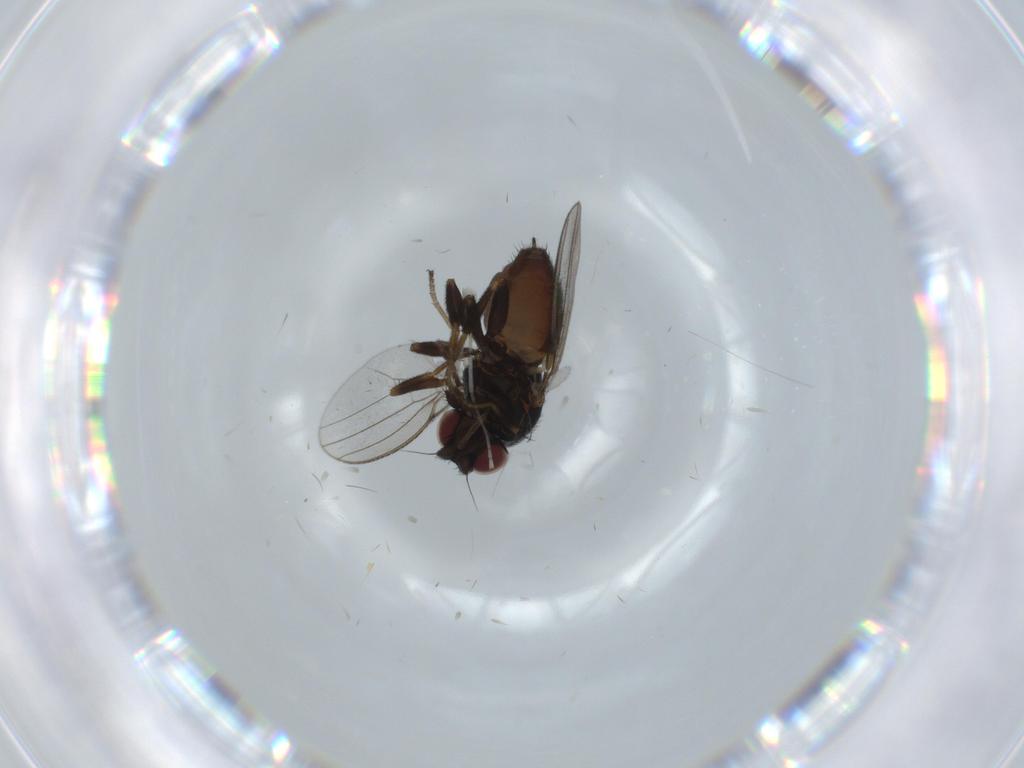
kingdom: Animalia
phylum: Arthropoda
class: Insecta
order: Diptera
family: Milichiidae
